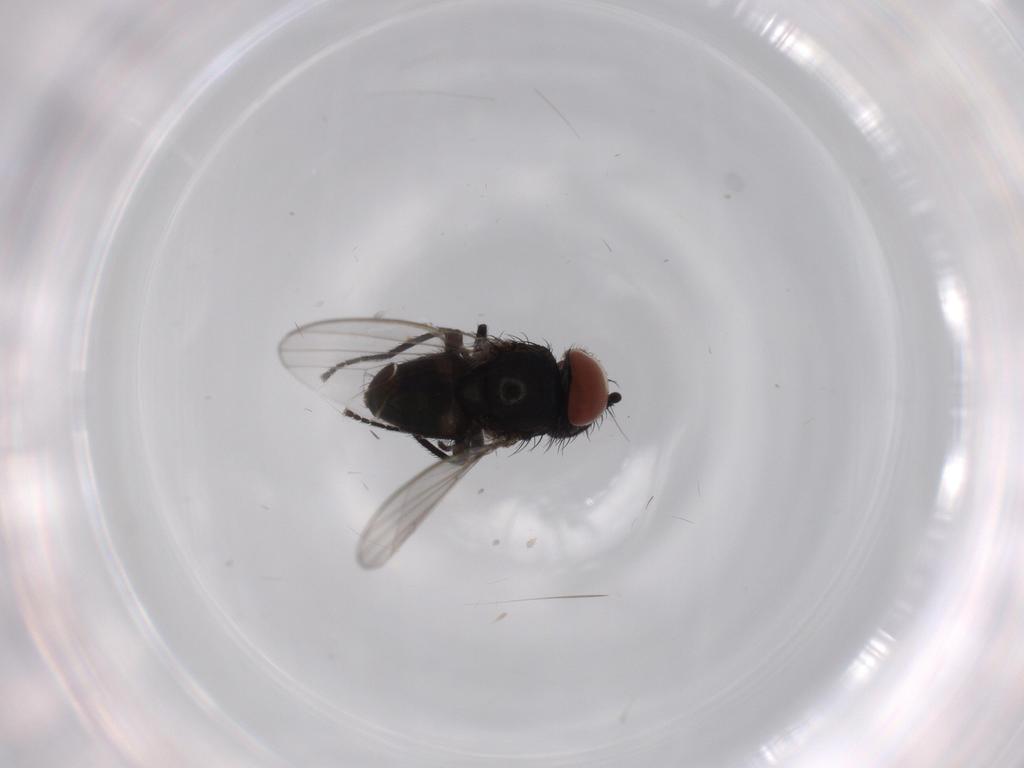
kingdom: Animalia
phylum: Arthropoda
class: Insecta
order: Diptera
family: Milichiidae
